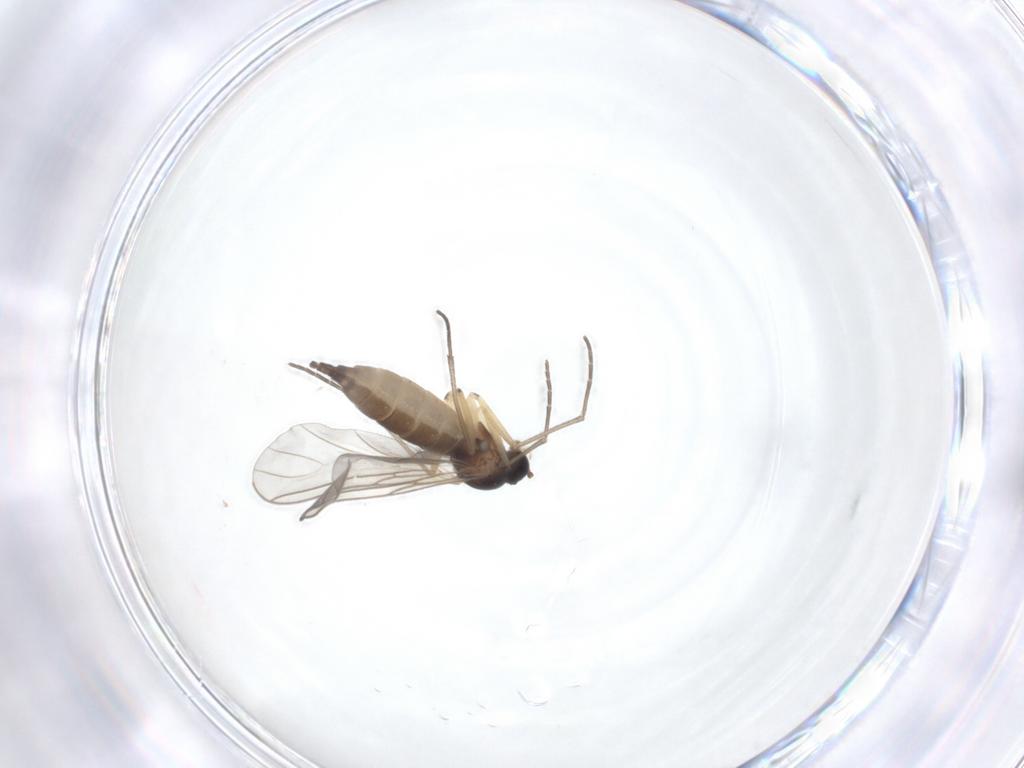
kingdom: Animalia
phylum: Arthropoda
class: Insecta
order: Diptera
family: Sciaridae
